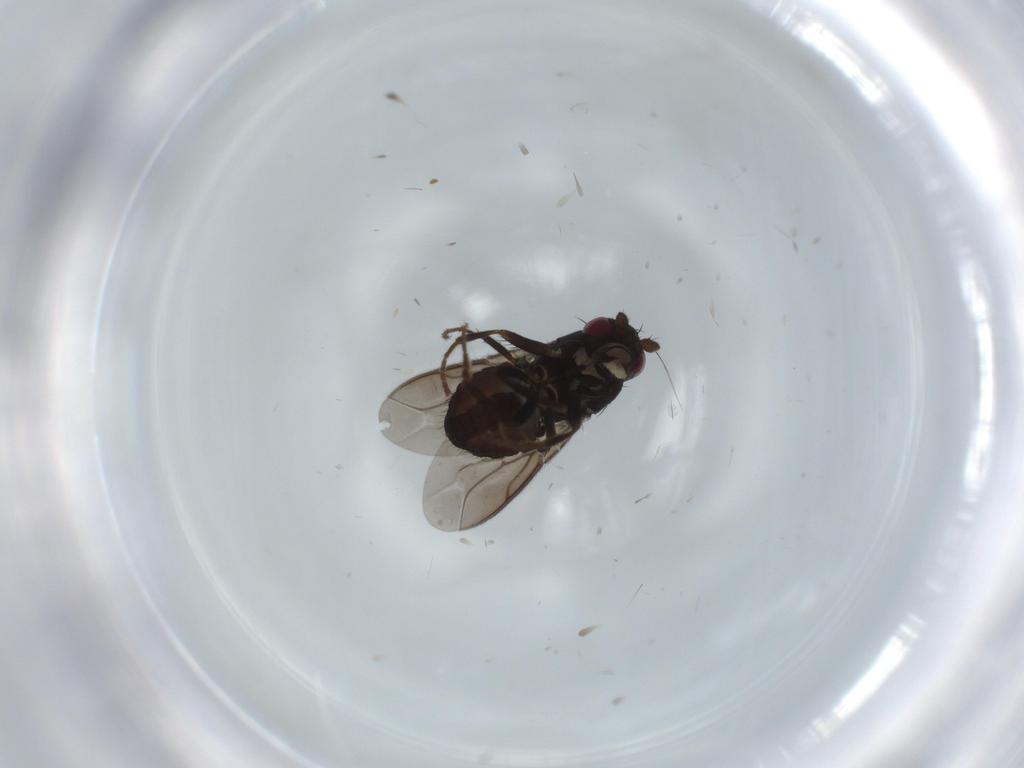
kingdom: Animalia
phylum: Arthropoda
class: Insecta
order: Diptera
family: Sphaeroceridae
